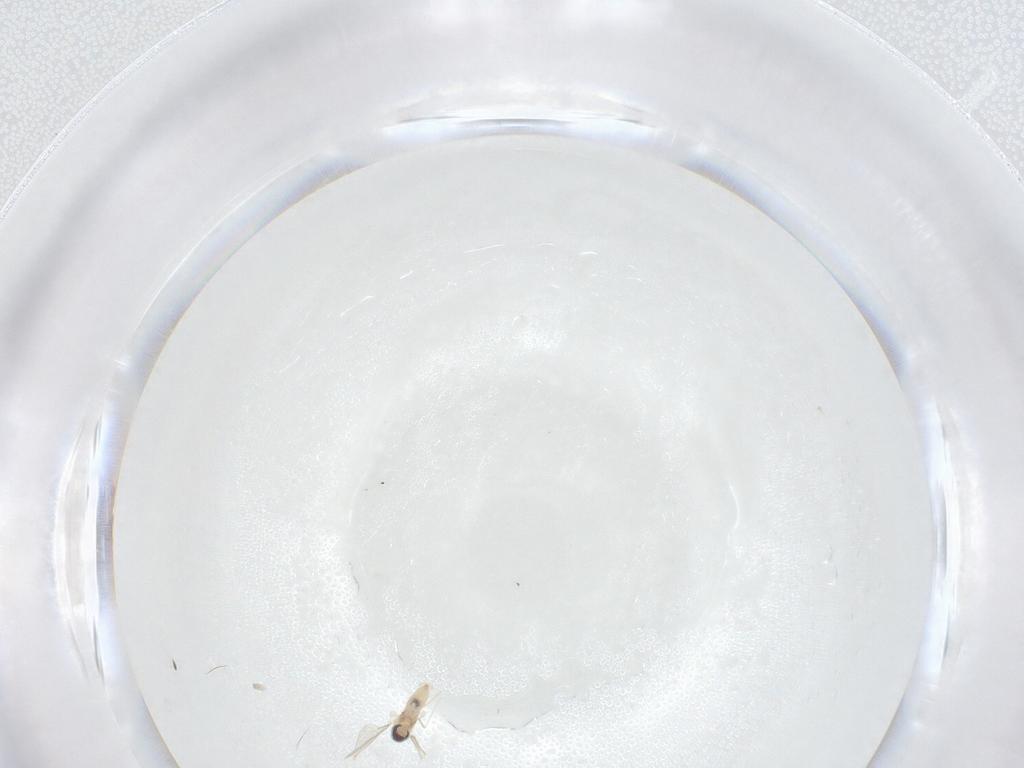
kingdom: Animalia
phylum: Arthropoda
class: Insecta
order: Diptera
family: Cecidomyiidae
